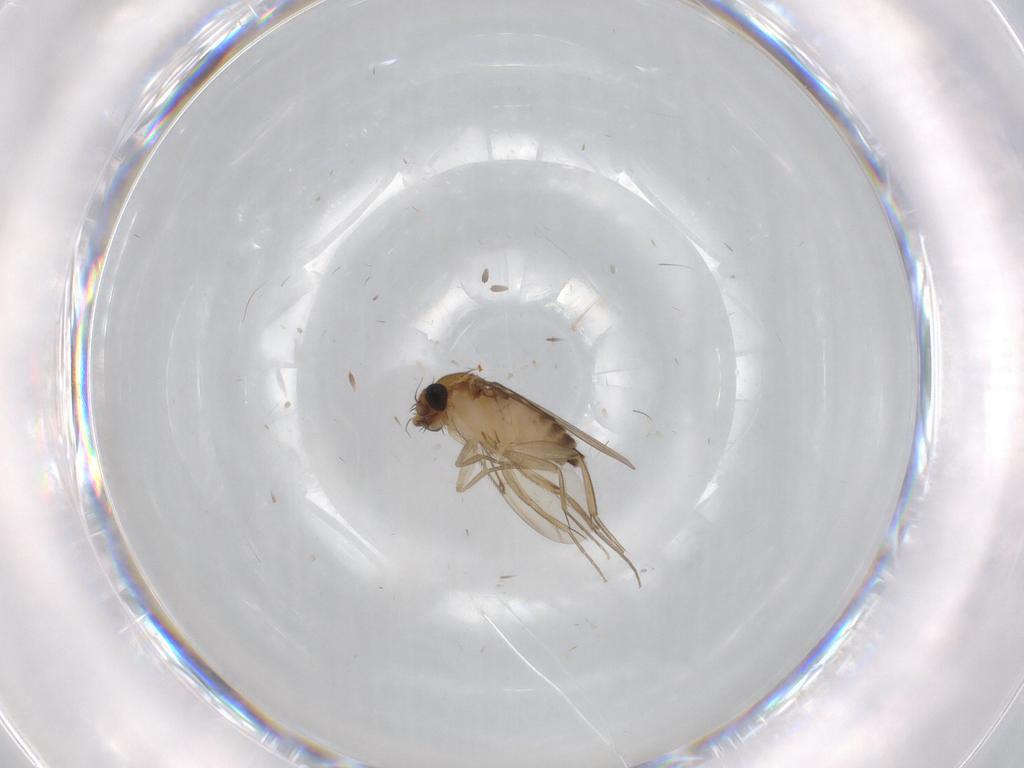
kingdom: Animalia
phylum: Arthropoda
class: Insecta
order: Diptera
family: Phoridae
